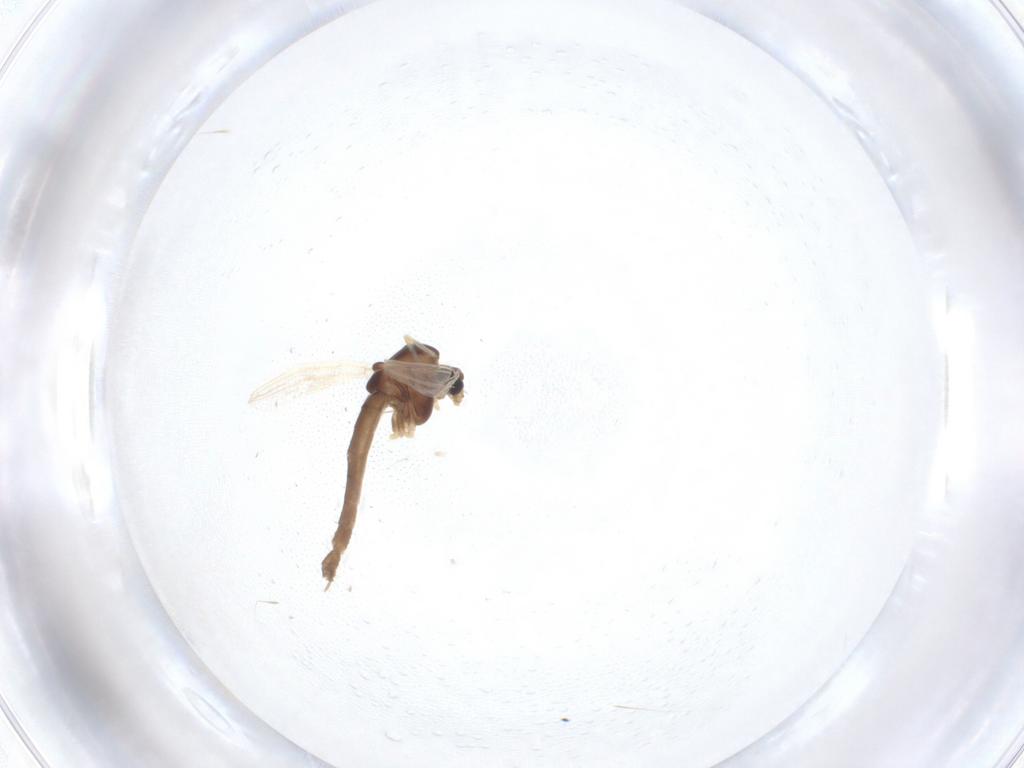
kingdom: Animalia
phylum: Arthropoda
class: Insecta
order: Diptera
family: Chironomidae
